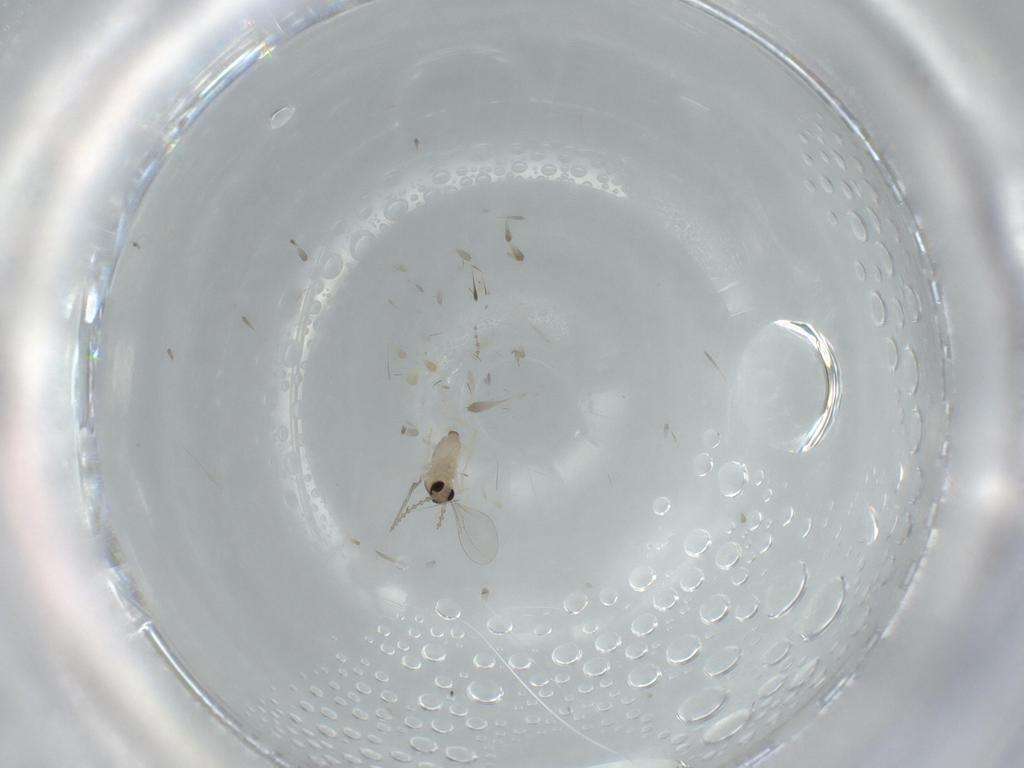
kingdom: Animalia
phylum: Arthropoda
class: Insecta
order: Diptera
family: Cecidomyiidae
